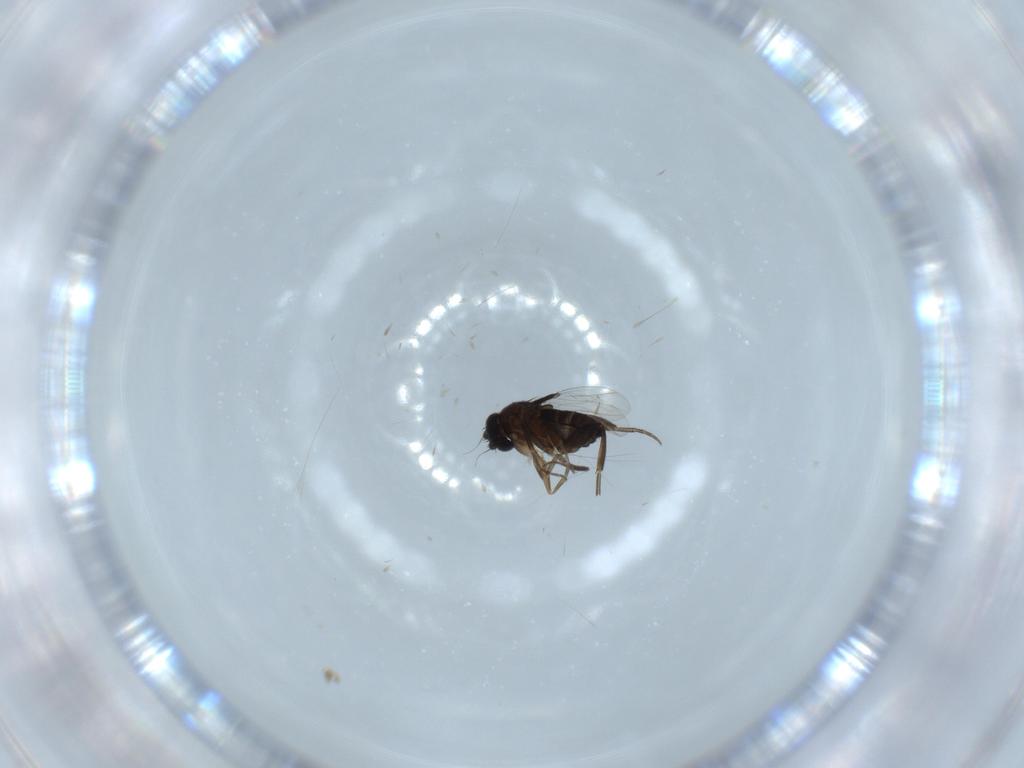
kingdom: Animalia
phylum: Arthropoda
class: Insecta
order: Diptera
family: Phoridae
